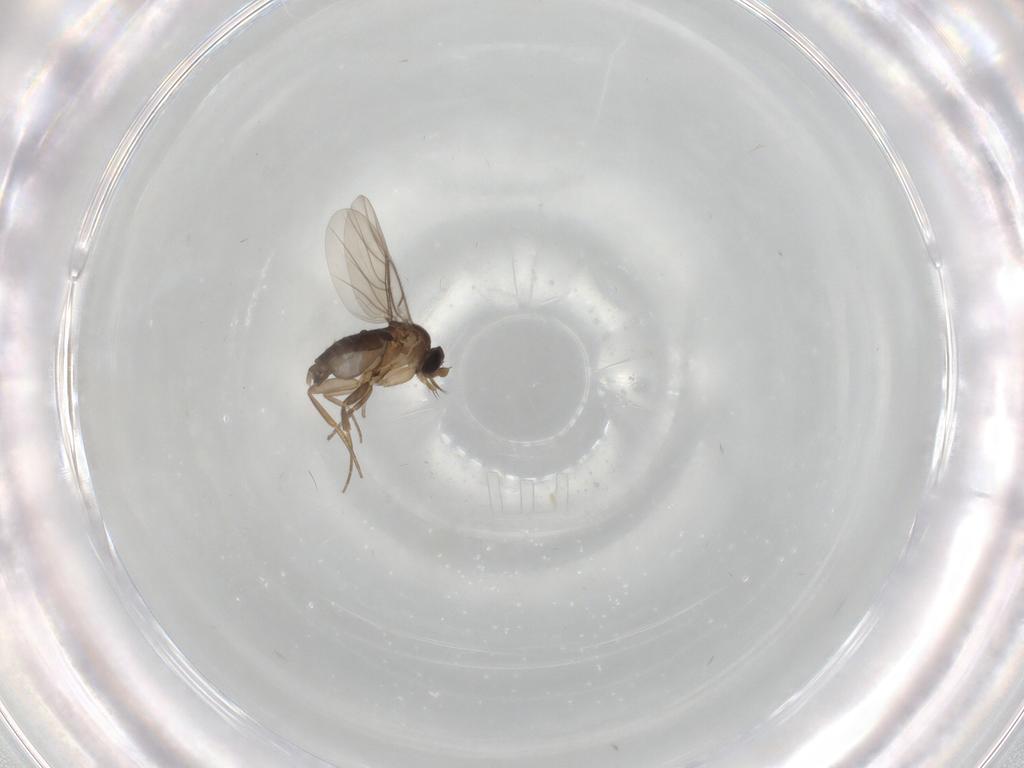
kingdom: Animalia
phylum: Arthropoda
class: Insecta
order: Diptera
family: Phoridae
